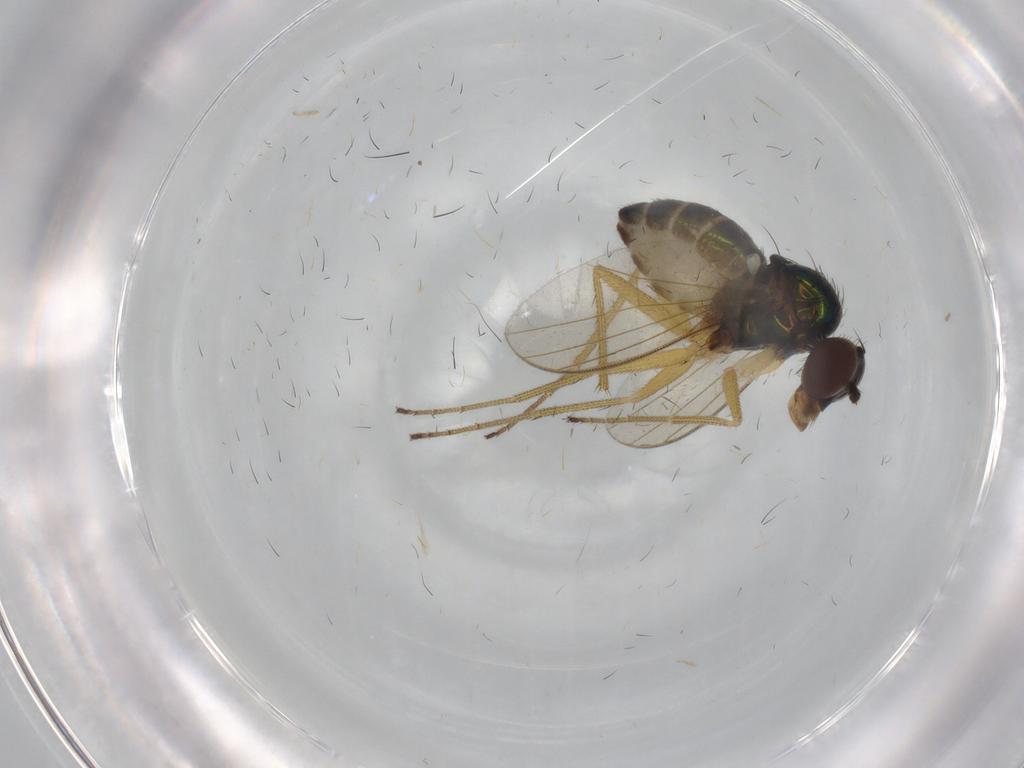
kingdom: Animalia
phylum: Arthropoda
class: Insecta
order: Diptera
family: Dolichopodidae
